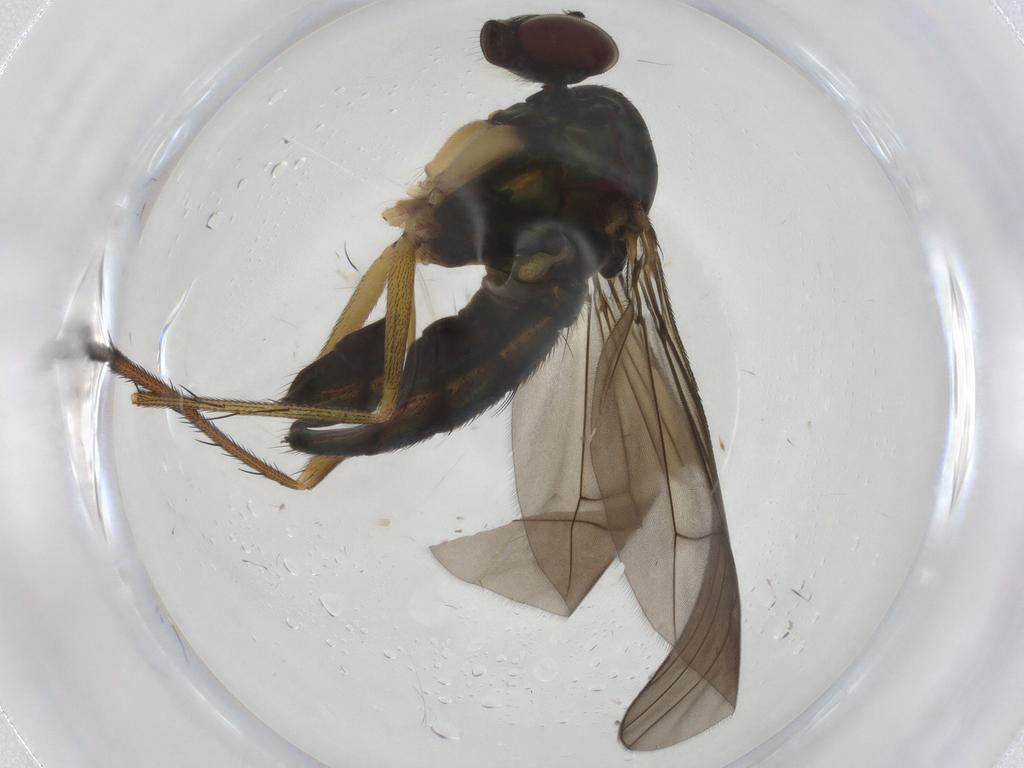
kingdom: Animalia
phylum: Arthropoda
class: Insecta
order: Diptera
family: Dolichopodidae
